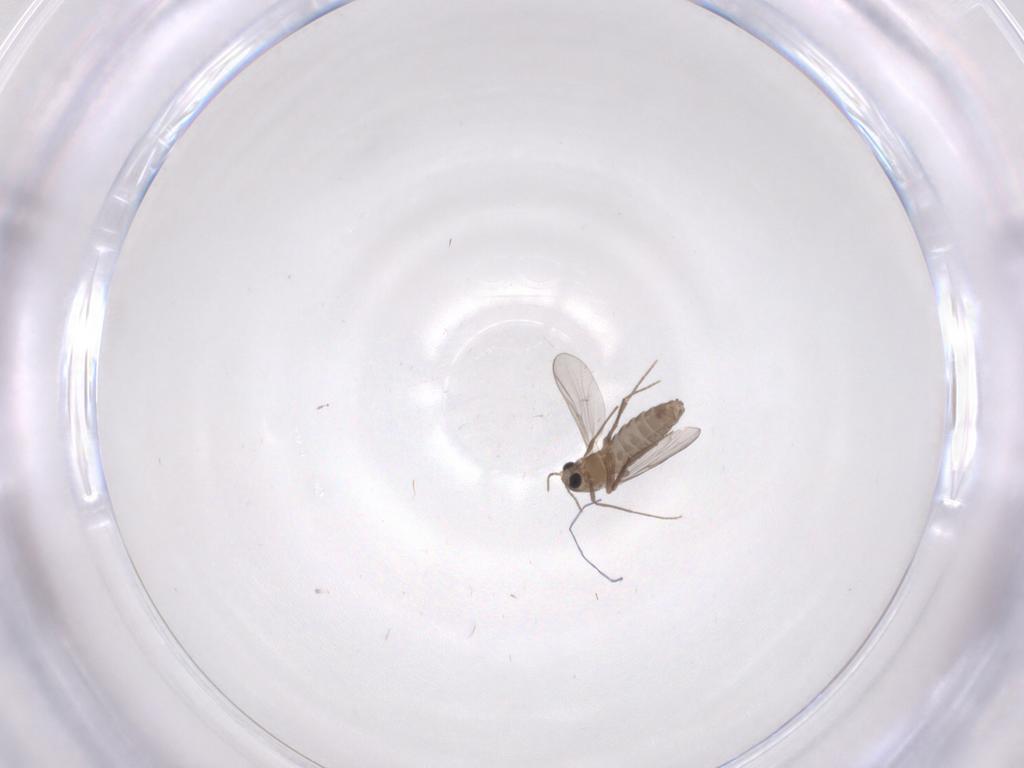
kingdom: Animalia
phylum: Arthropoda
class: Insecta
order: Diptera
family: Chironomidae
